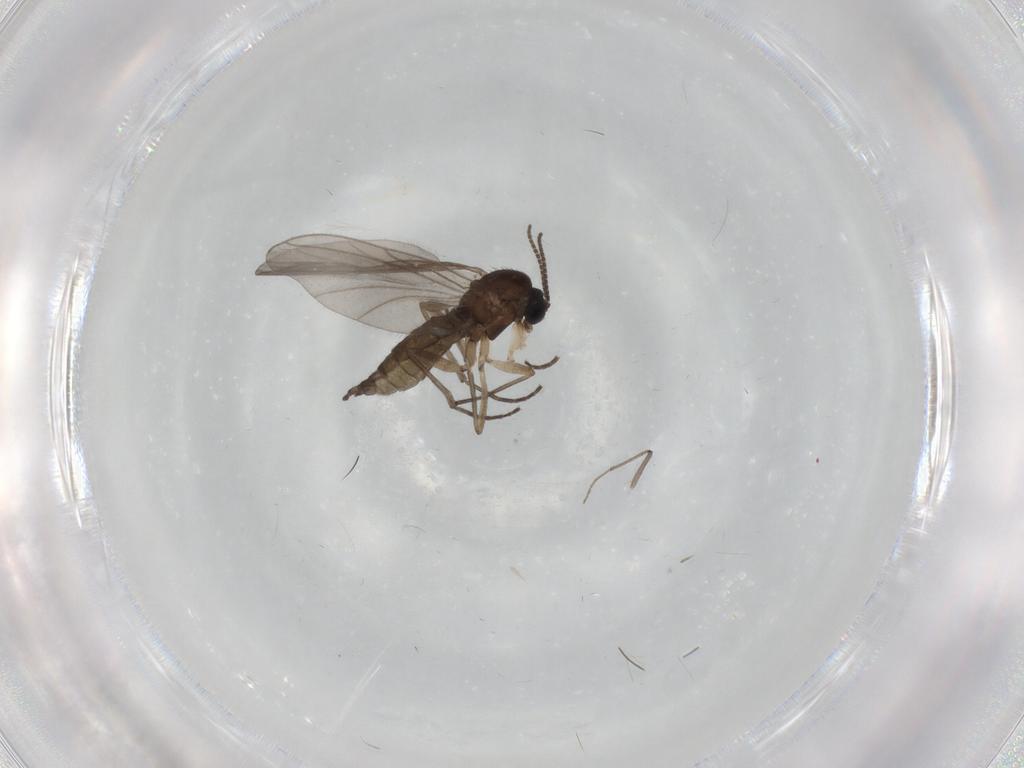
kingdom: Animalia
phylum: Arthropoda
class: Insecta
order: Diptera
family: Sciaridae
